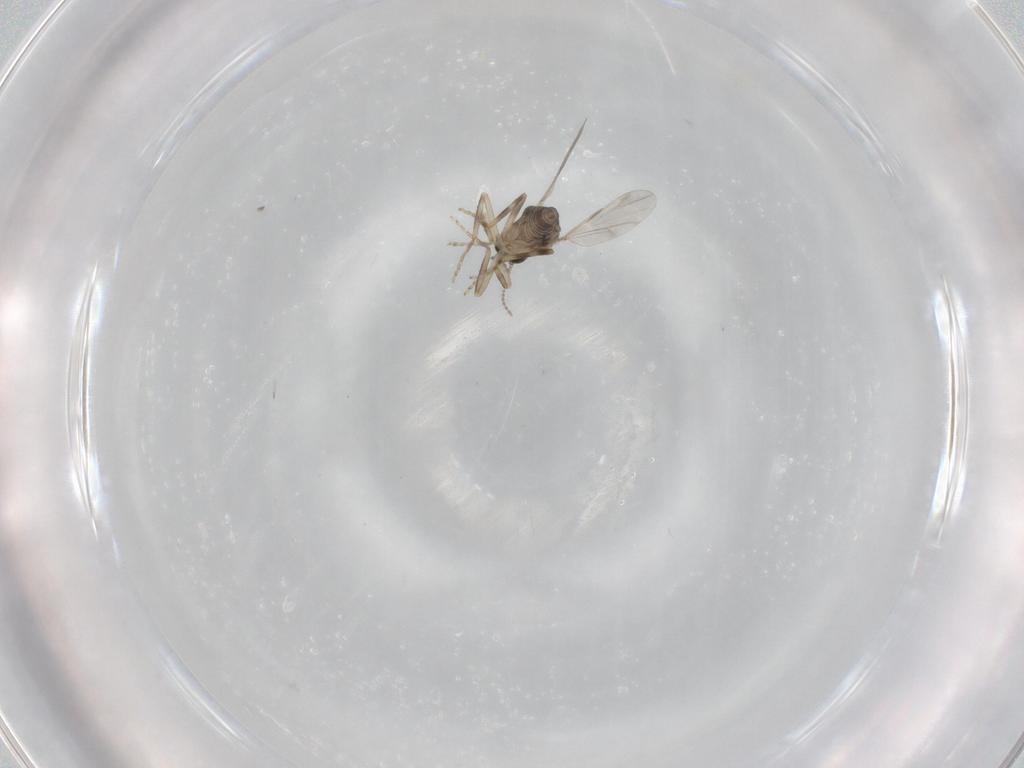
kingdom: Animalia
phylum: Arthropoda
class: Insecta
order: Diptera
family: Ceratopogonidae
